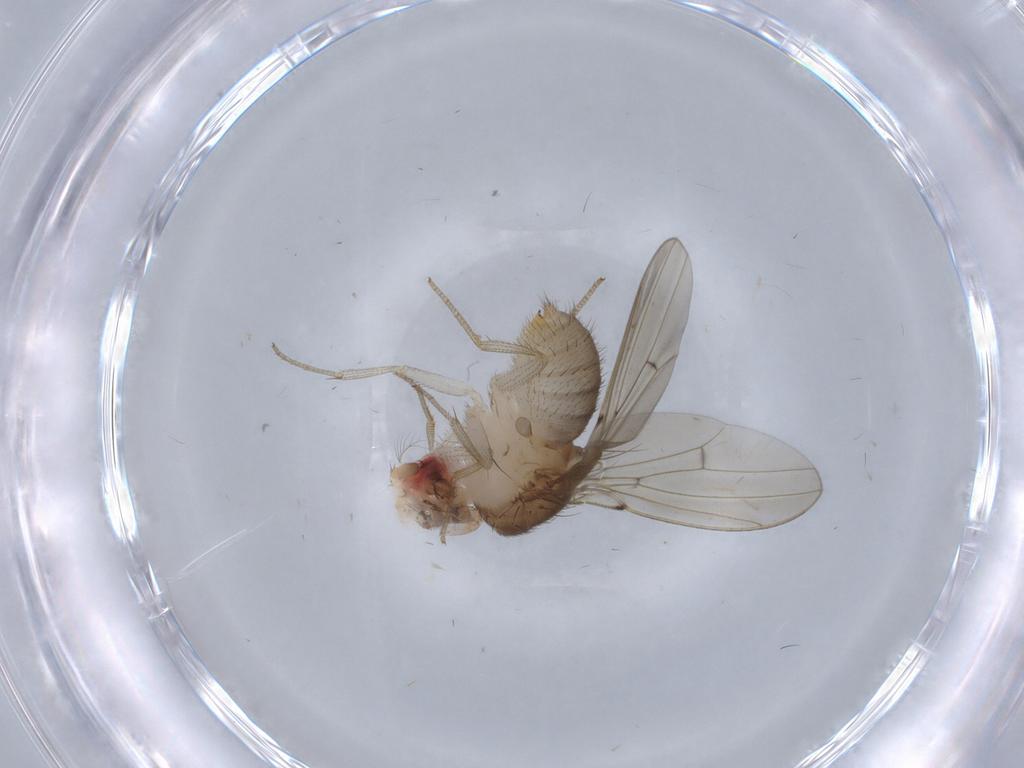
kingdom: Animalia
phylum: Arthropoda
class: Insecta
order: Diptera
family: Drosophilidae
